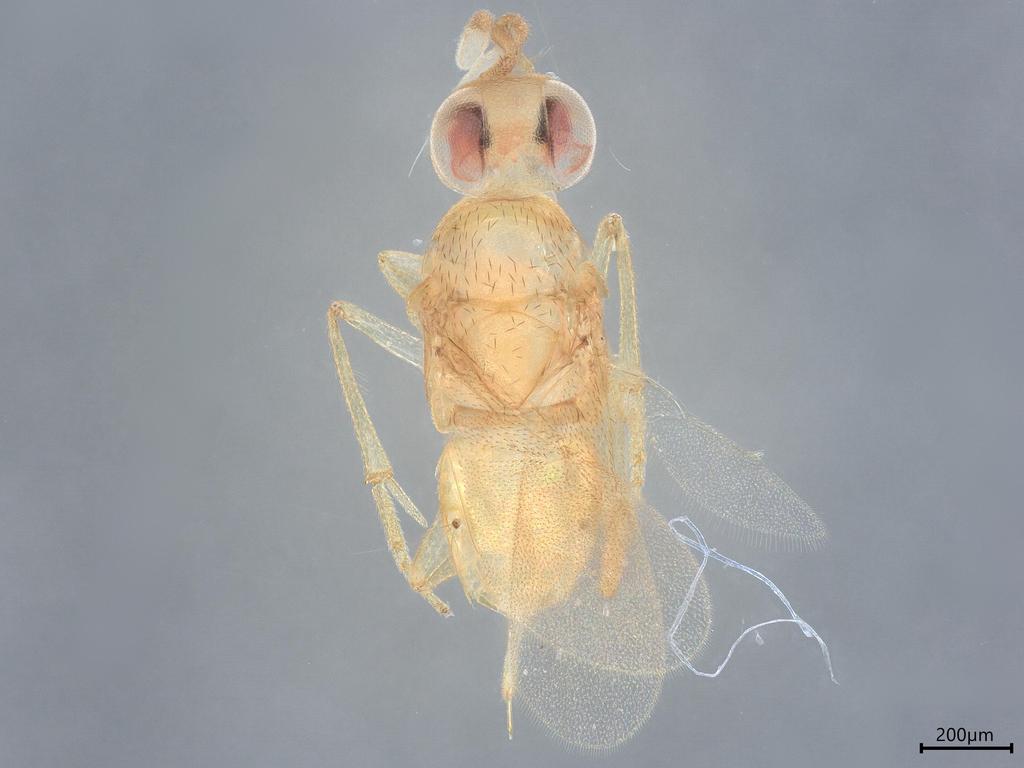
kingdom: Animalia
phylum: Arthropoda
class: Insecta
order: Hymenoptera
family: Encyrtidae
